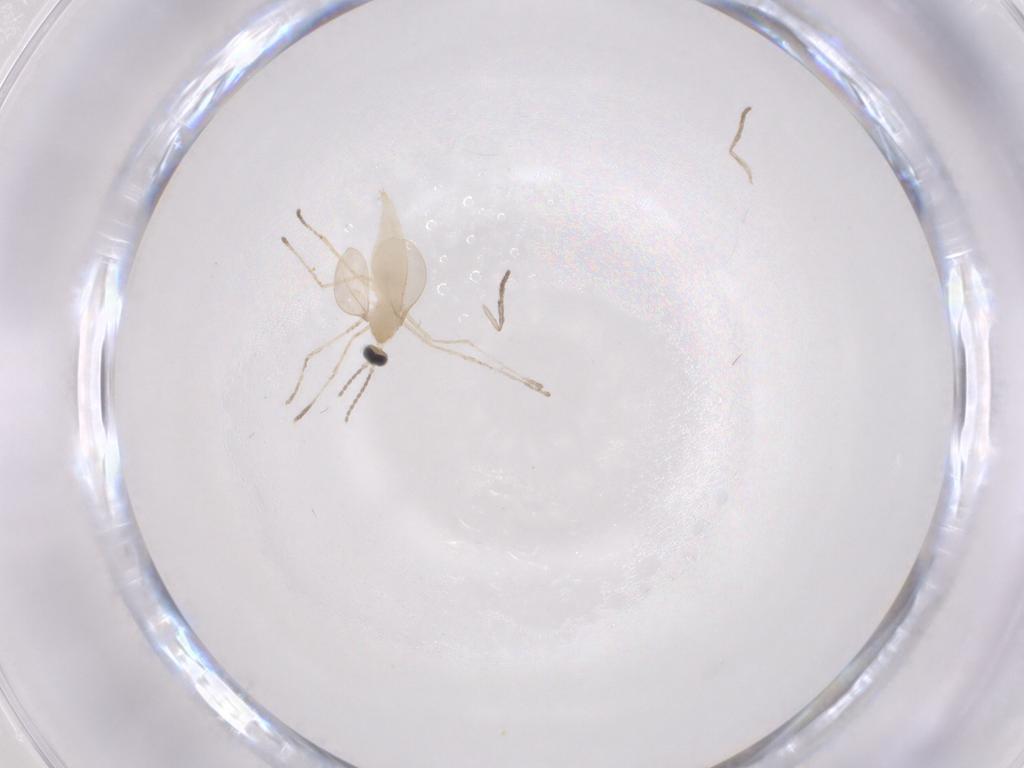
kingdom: Animalia
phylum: Arthropoda
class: Insecta
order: Diptera
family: Cecidomyiidae
